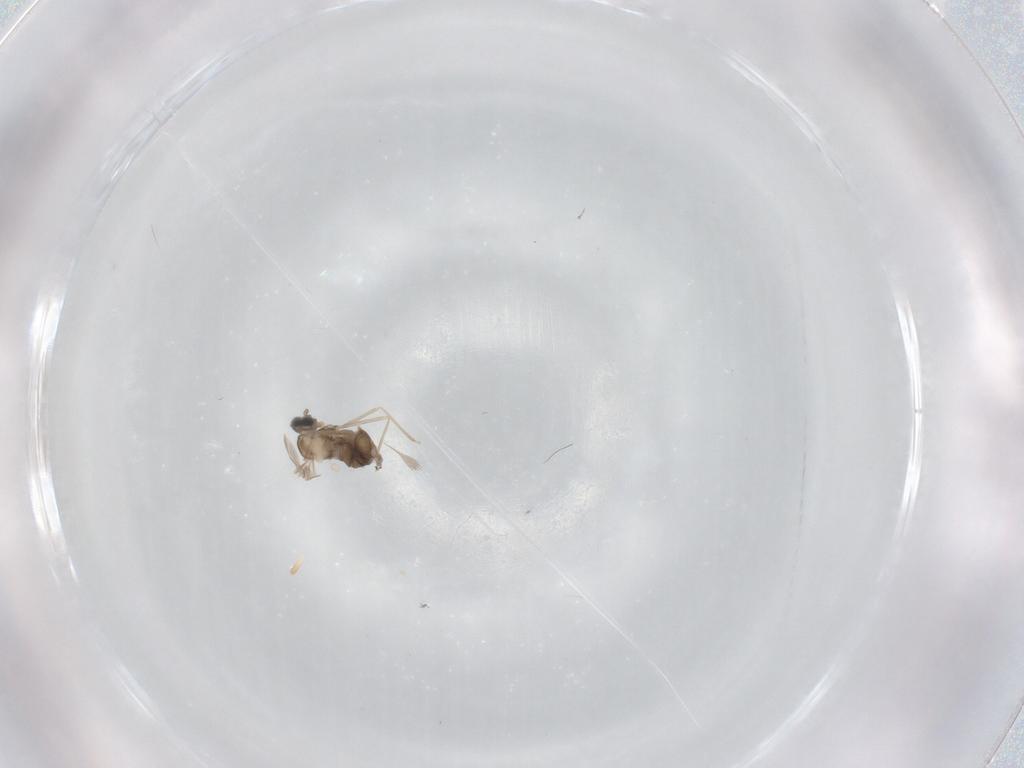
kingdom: Animalia
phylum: Arthropoda
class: Insecta
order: Diptera
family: Cecidomyiidae
